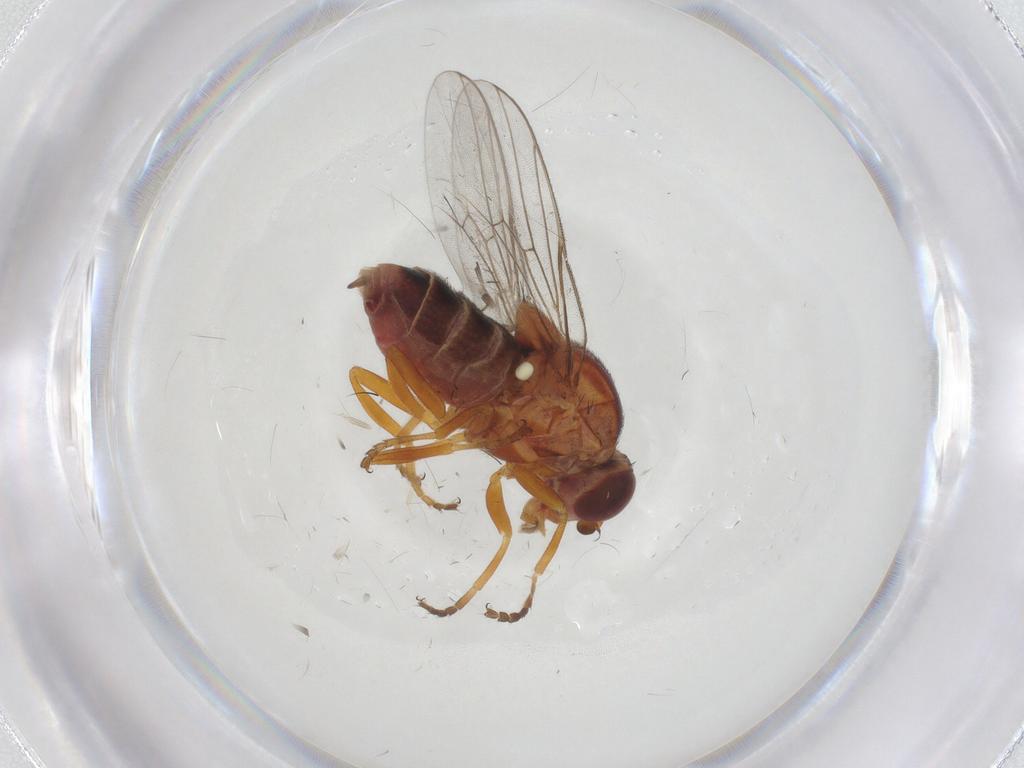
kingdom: Animalia
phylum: Arthropoda
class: Insecta
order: Diptera
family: Chloropidae
